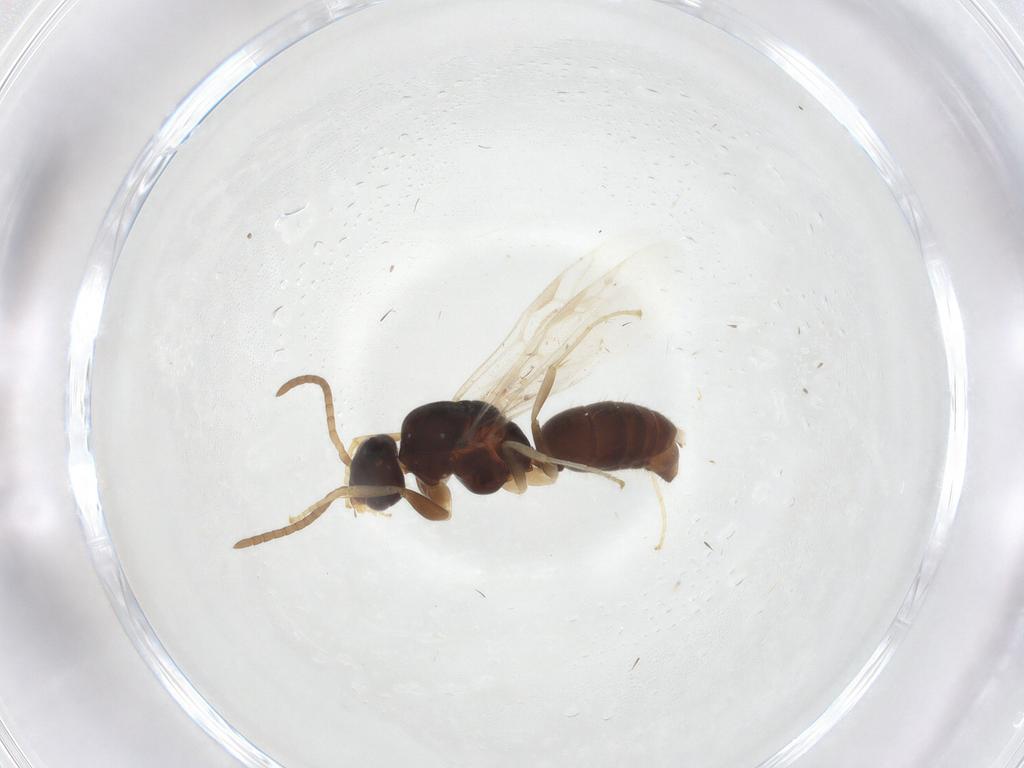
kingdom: Animalia
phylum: Arthropoda
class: Insecta
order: Hymenoptera
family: Formicidae
